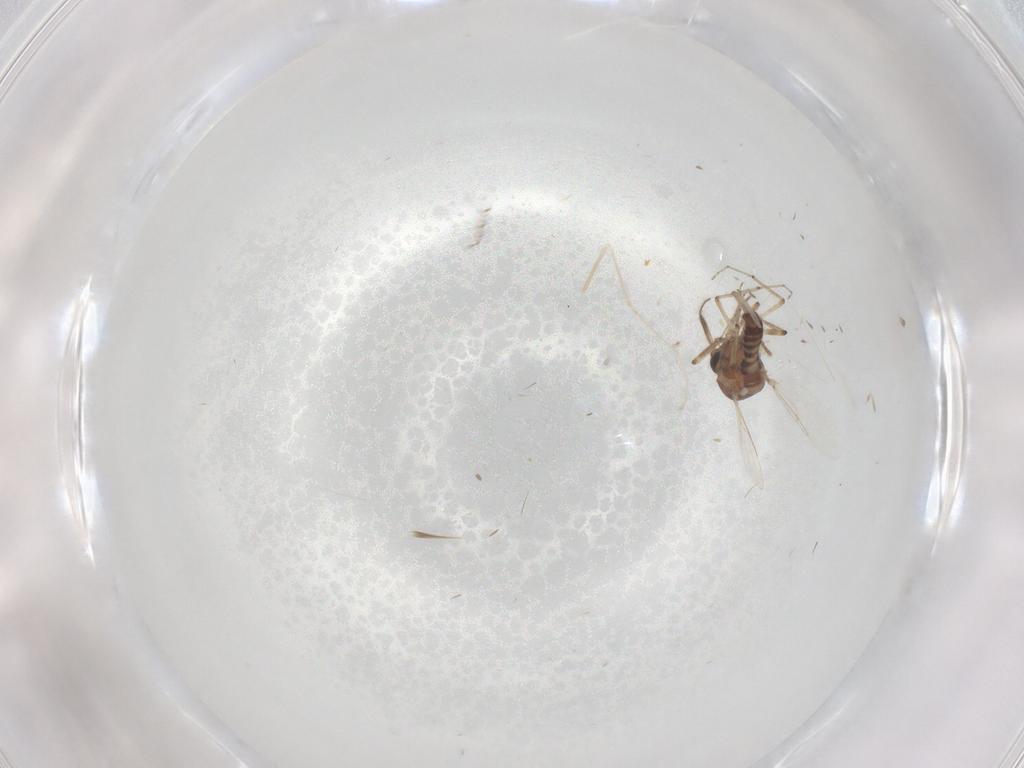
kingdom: Animalia
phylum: Arthropoda
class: Insecta
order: Diptera
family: Cecidomyiidae
